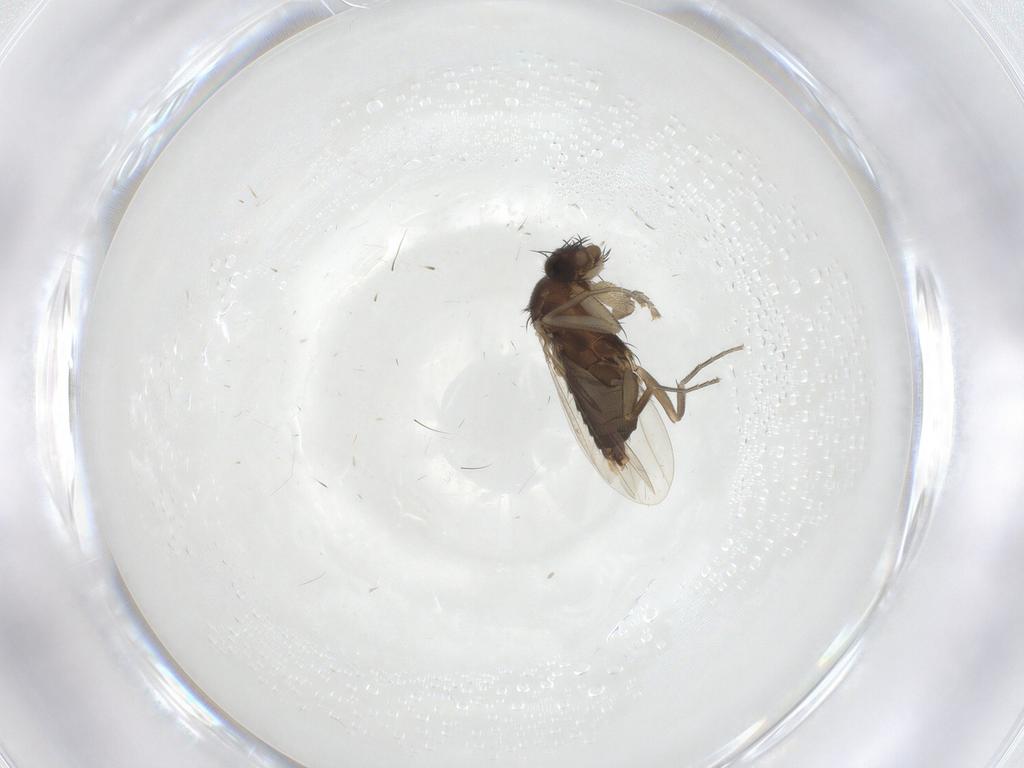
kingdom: Animalia
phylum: Arthropoda
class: Insecta
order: Diptera
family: Phoridae
